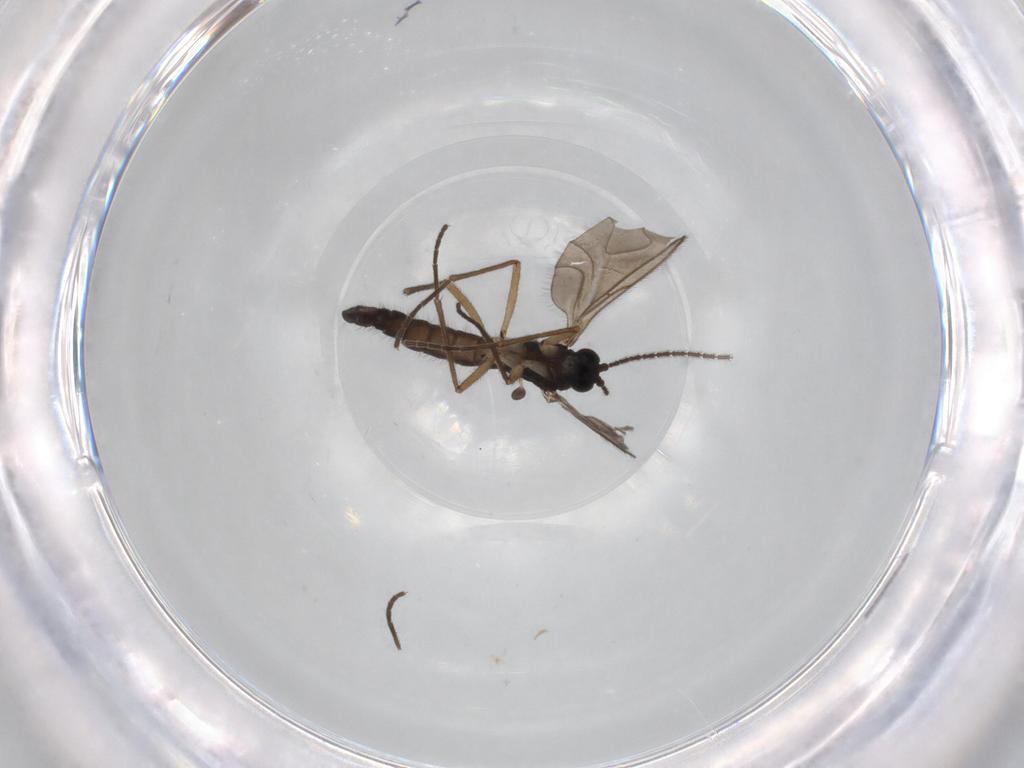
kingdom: Animalia
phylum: Arthropoda
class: Insecta
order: Diptera
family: Sciaridae
